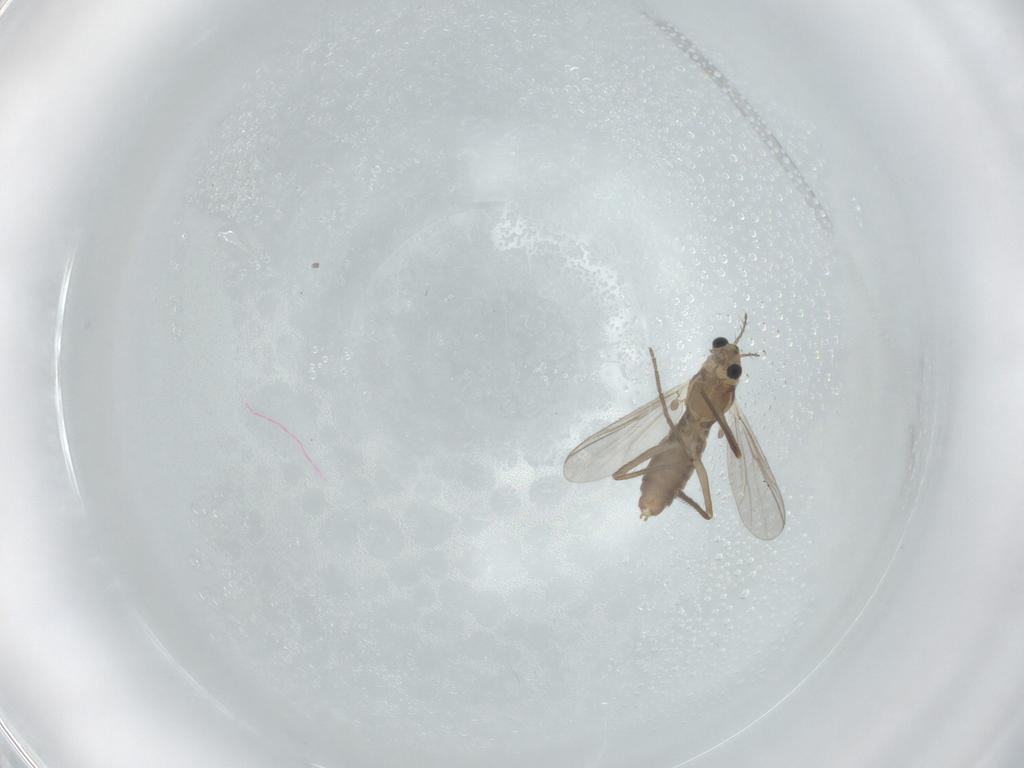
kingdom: Animalia
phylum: Arthropoda
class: Insecta
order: Diptera
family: Chironomidae
